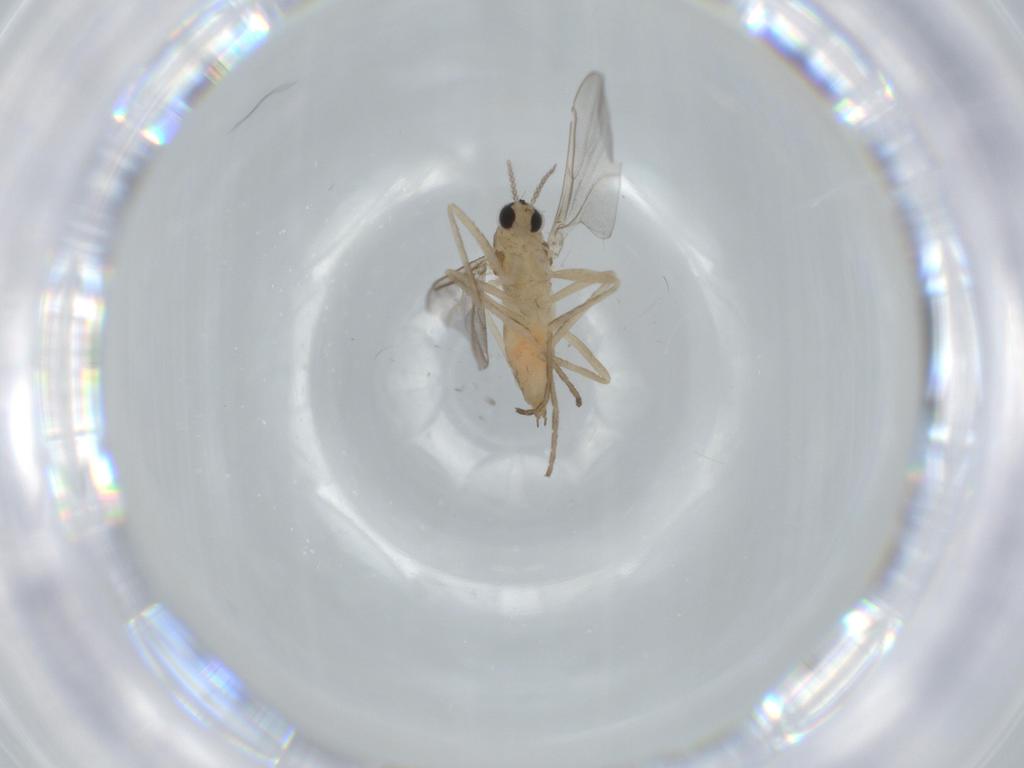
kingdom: Animalia
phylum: Arthropoda
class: Insecta
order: Diptera
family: Cecidomyiidae
